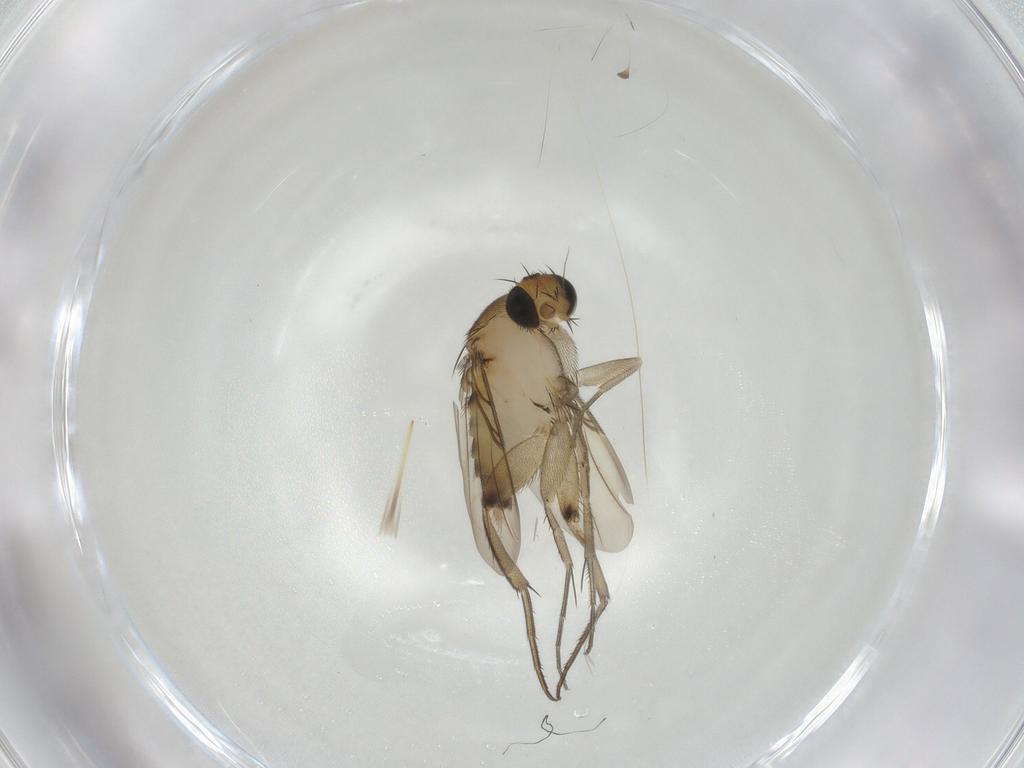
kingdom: Animalia
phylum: Arthropoda
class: Insecta
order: Diptera
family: Phoridae
